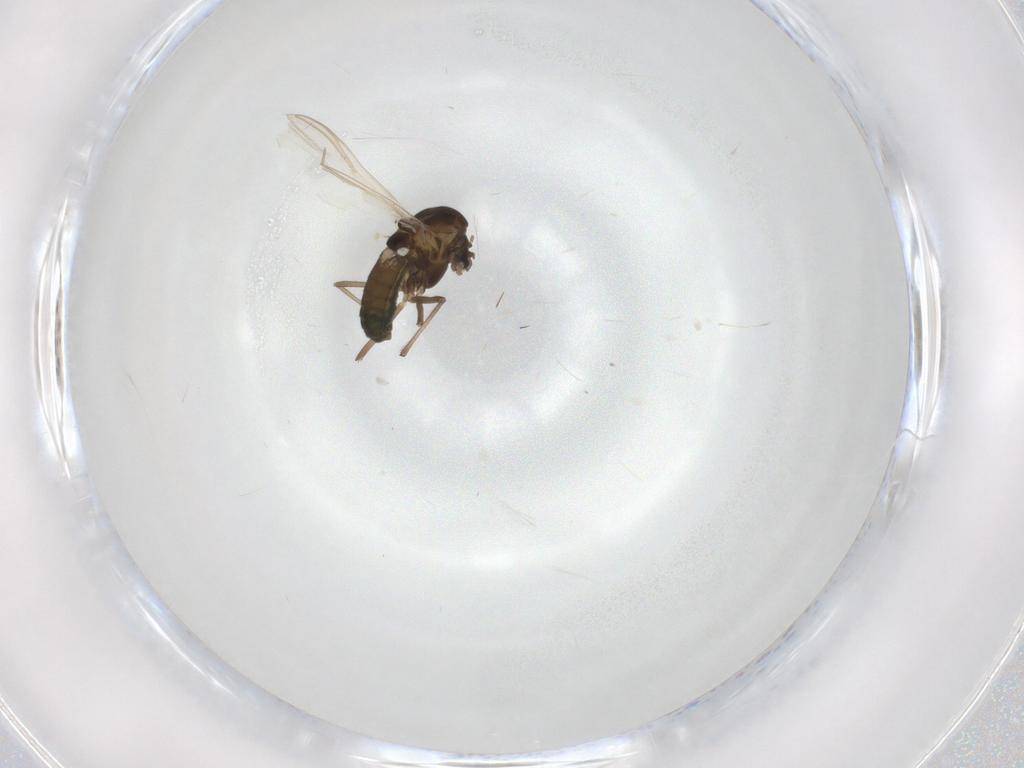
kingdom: Animalia
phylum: Arthropoda
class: Insecta
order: Diptera
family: Chironomidae
